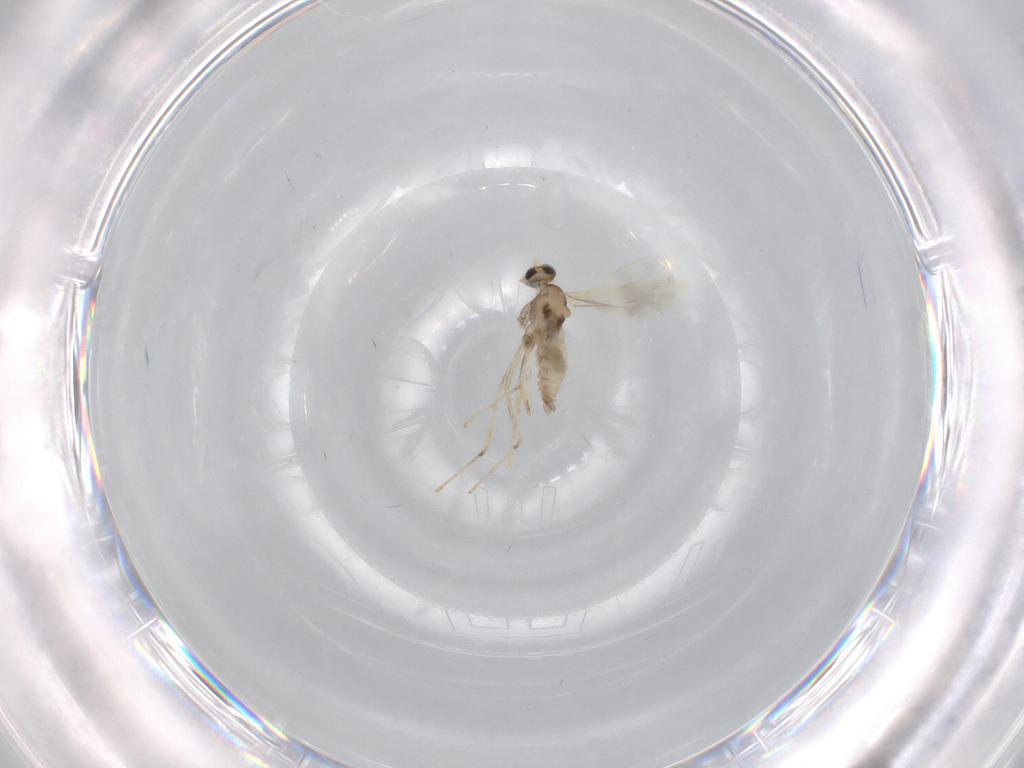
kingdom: Animalia
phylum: Arthropoda
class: Insecta
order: Diptera
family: Cecidomyiidae
